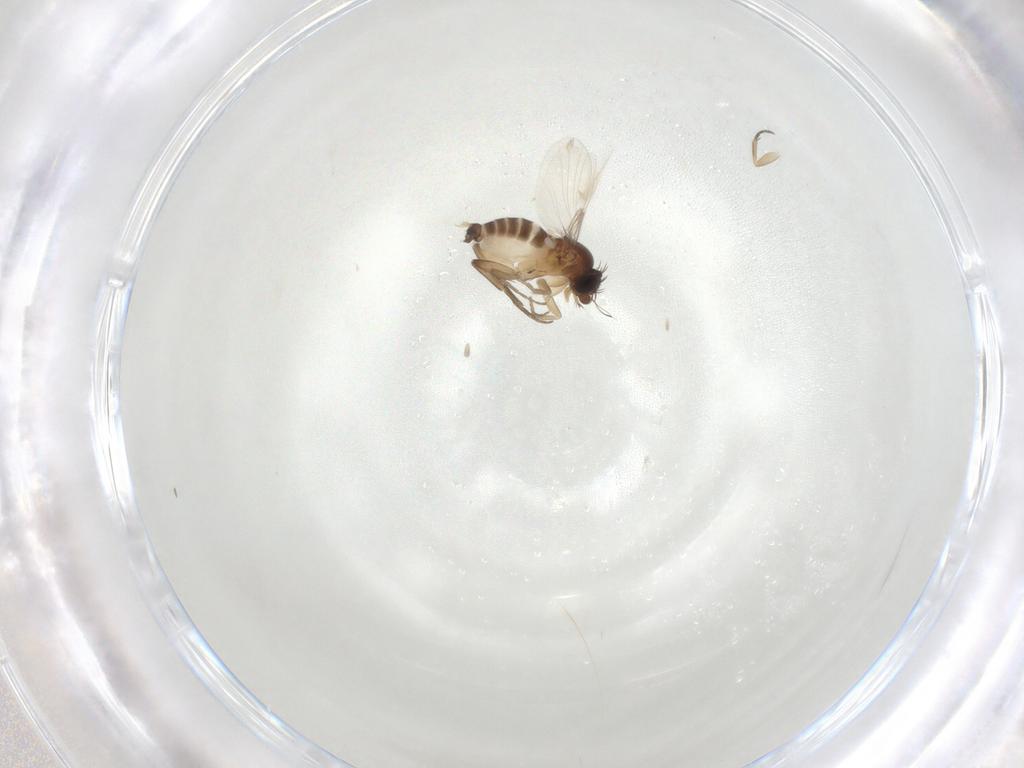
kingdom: Animalia
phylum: Arthropoda
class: Insecta
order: Diptera
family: Phoridae
